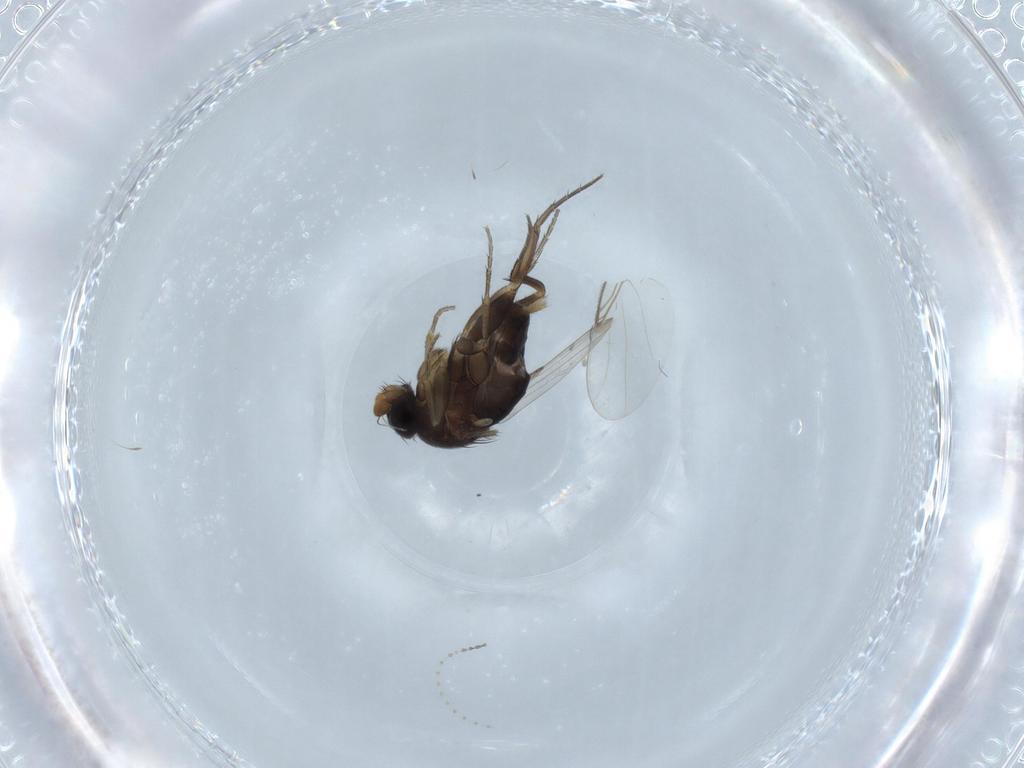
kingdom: Animalia
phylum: Arthropoda
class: Insecta
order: Diptera
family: Phoridae
